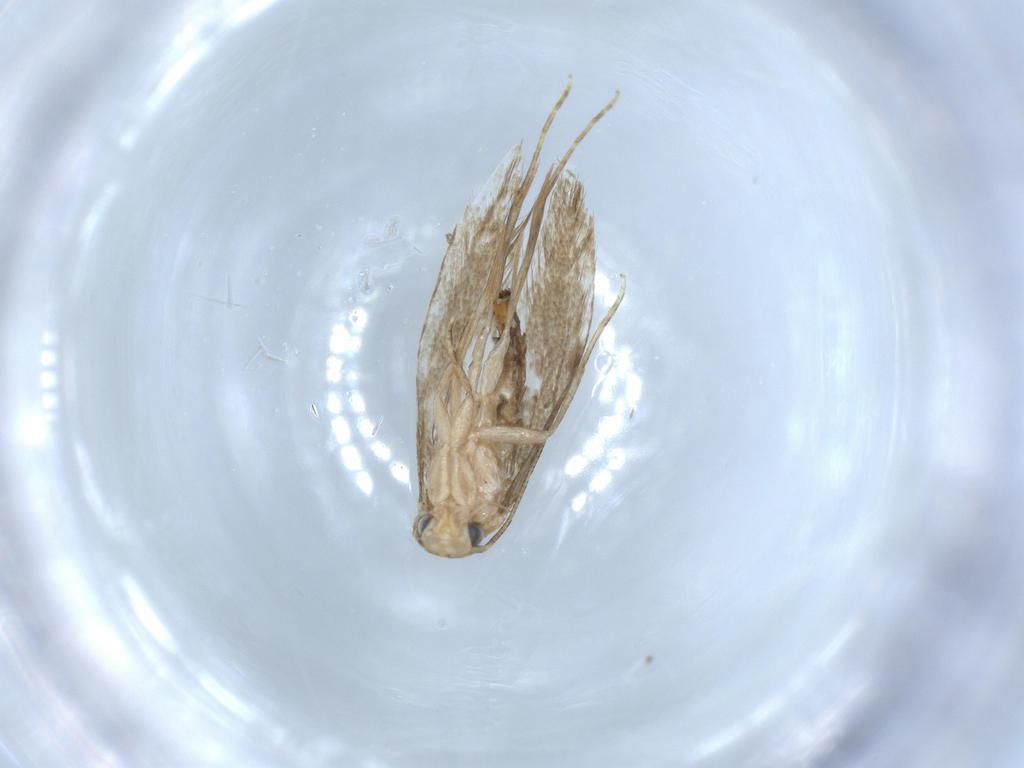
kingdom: Animalia
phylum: Arthropoda
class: Insecta
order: Lepidoptera
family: Tineidae
